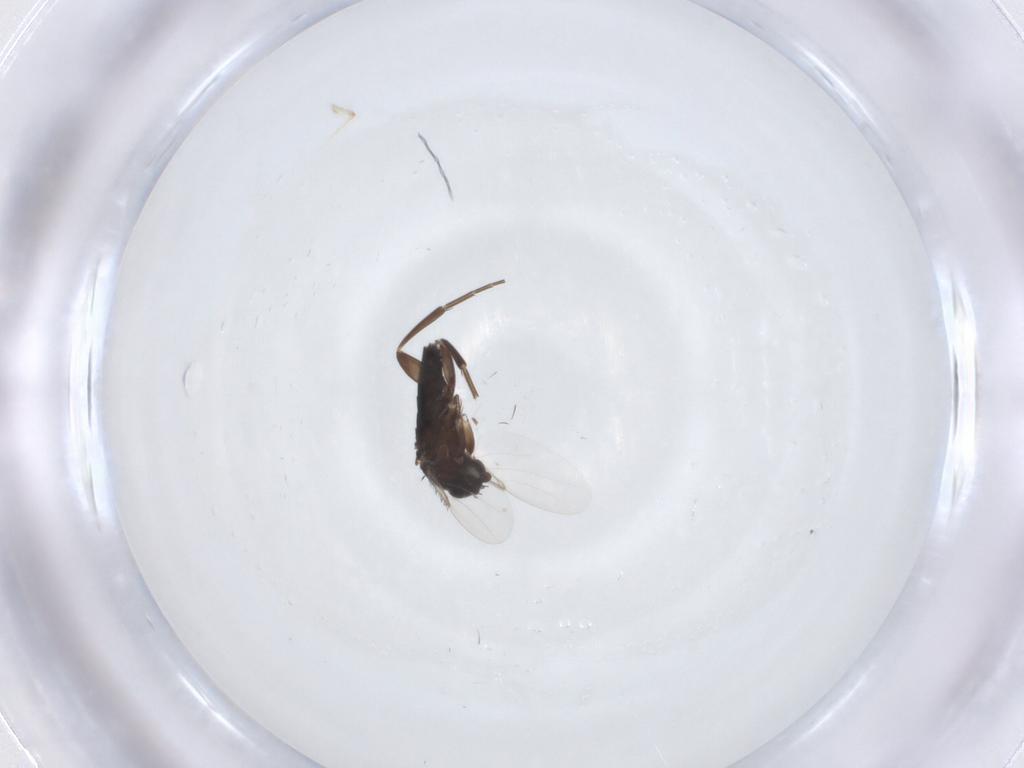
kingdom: Animalia
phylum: Arthropoda
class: Insecta
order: Diptera
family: Phoridae
